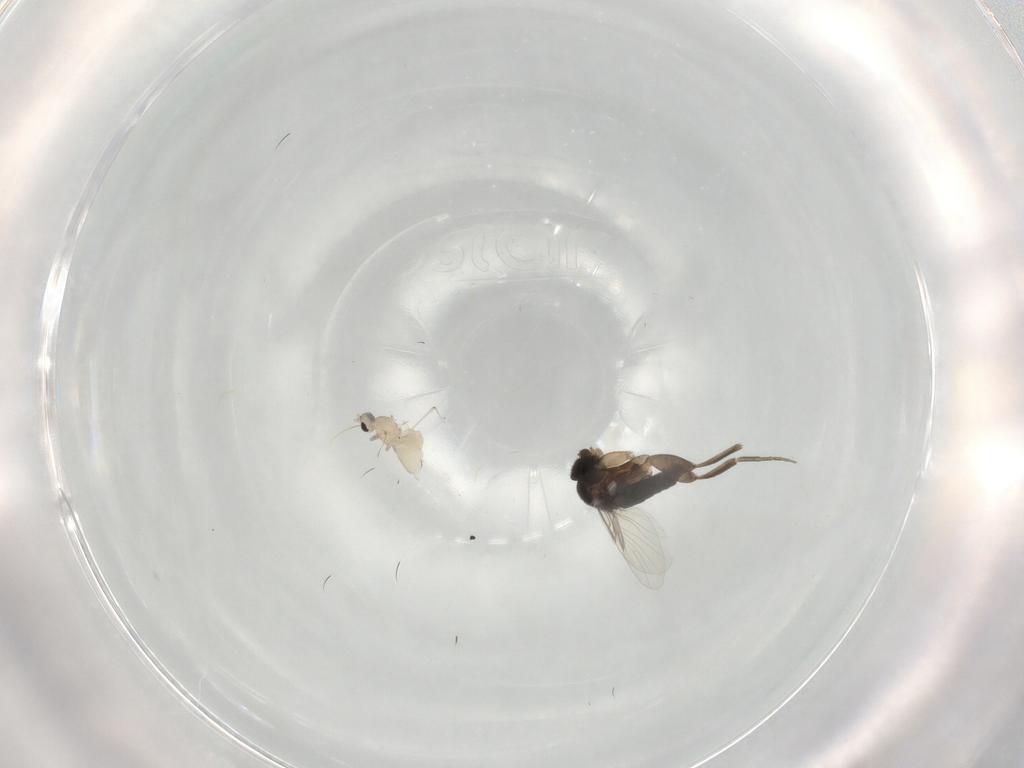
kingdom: Animalia
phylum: Arthropoda
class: Insecta
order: Diptera
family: Cecidomyiidae
